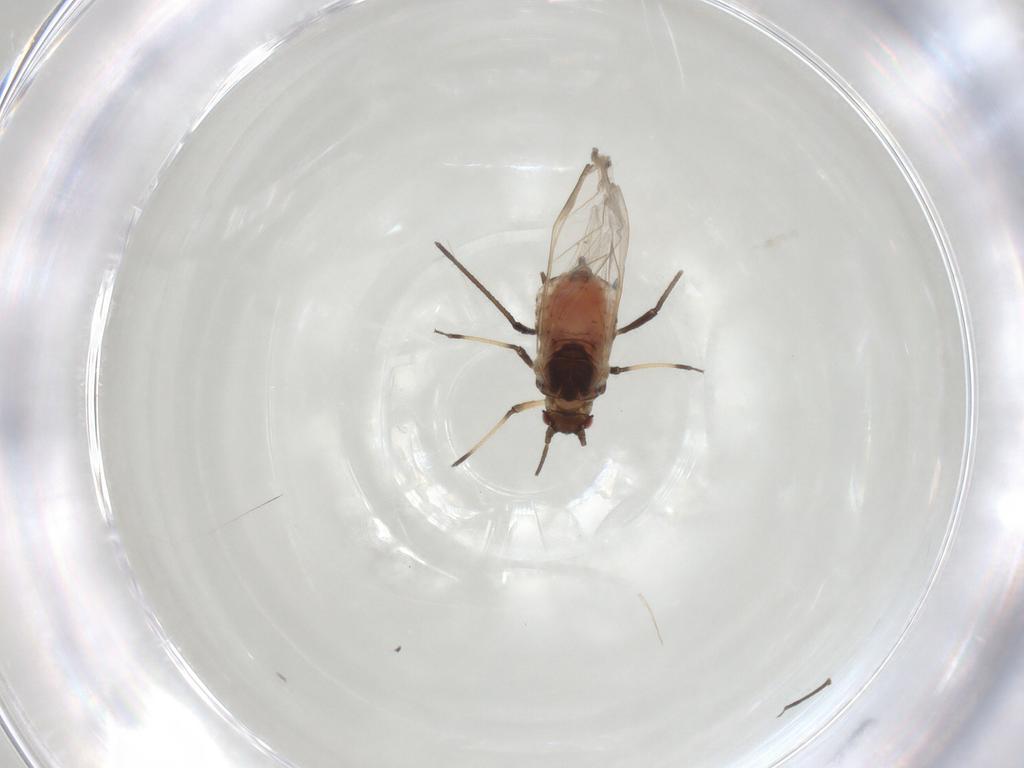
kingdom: Animalia
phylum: Arthropoda
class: Insecta
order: Hemiptera
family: Aphididae
